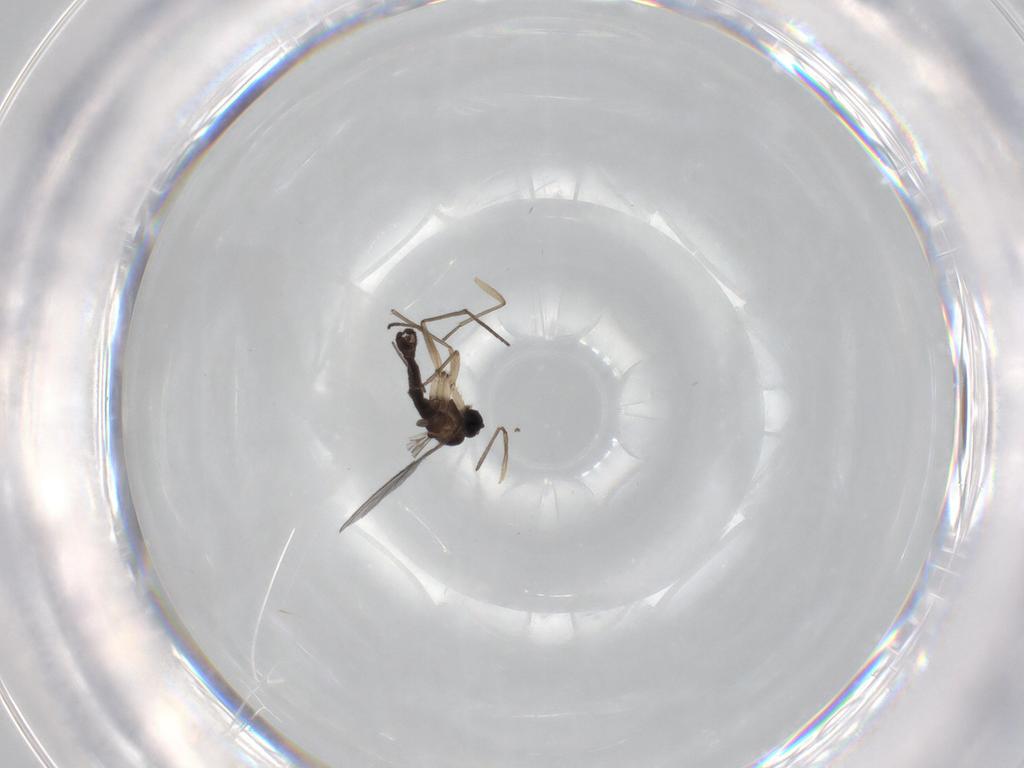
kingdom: Animalia
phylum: Arthropoda
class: Insecta
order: Diptera
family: Sciaridae
